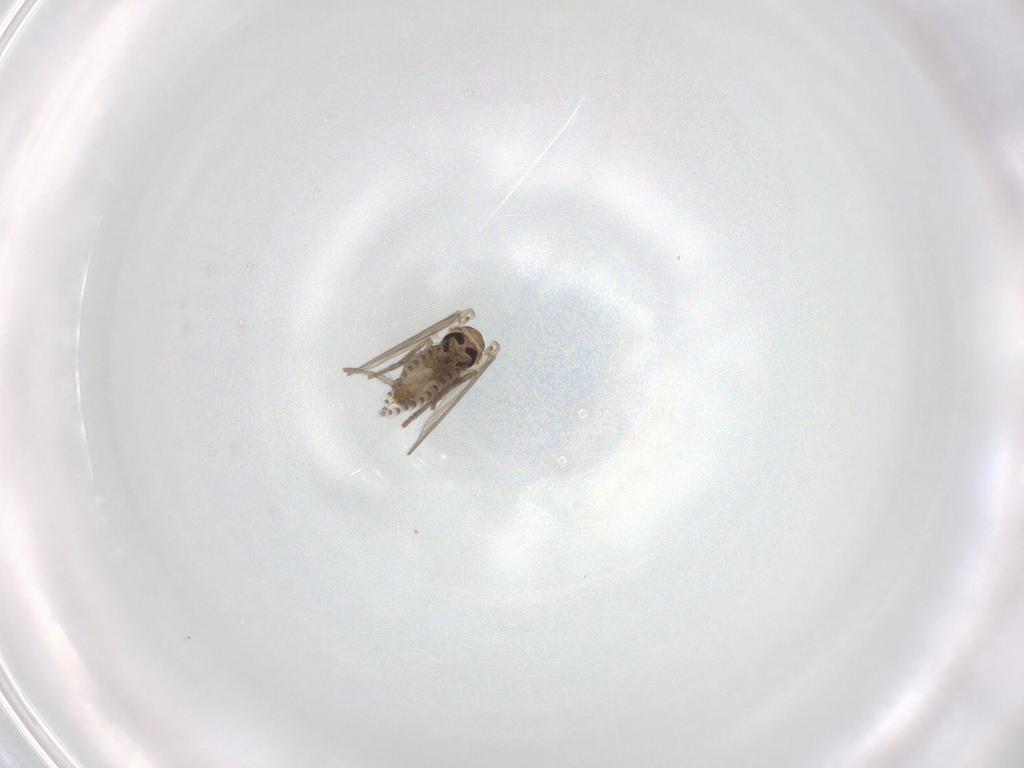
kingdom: Animalia
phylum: Arthropoda
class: Insecta
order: Diptera
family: Psychodidae
